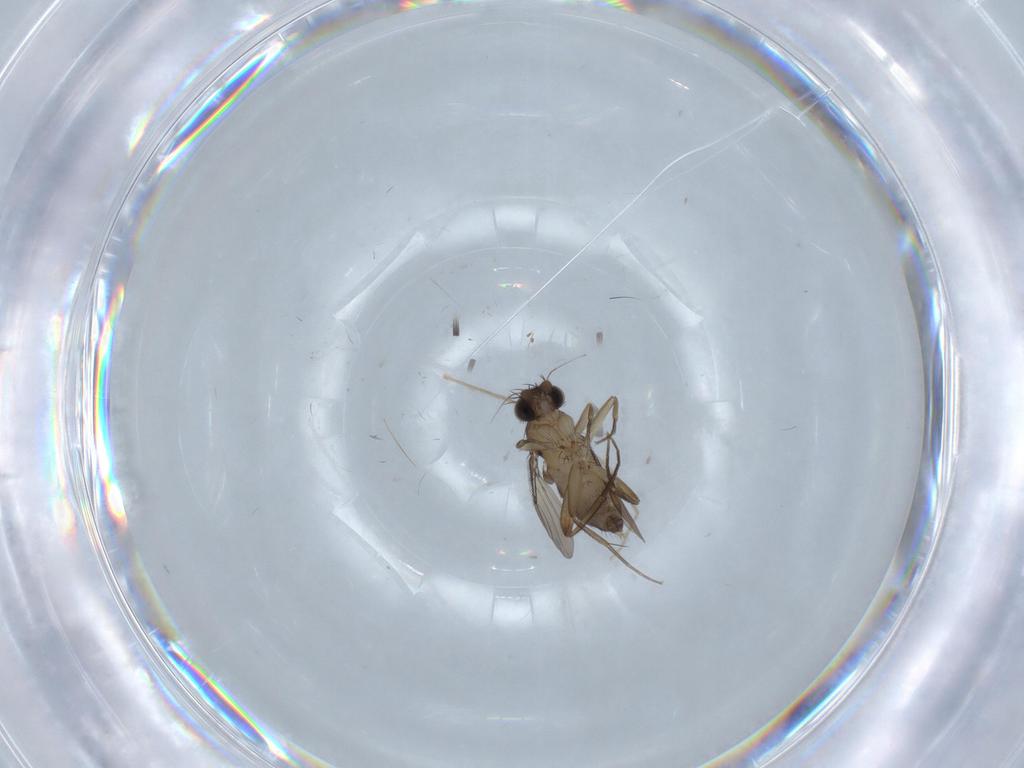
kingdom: Animalia
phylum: Arthropoda
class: Insecta
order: Diptera
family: Phoridae
